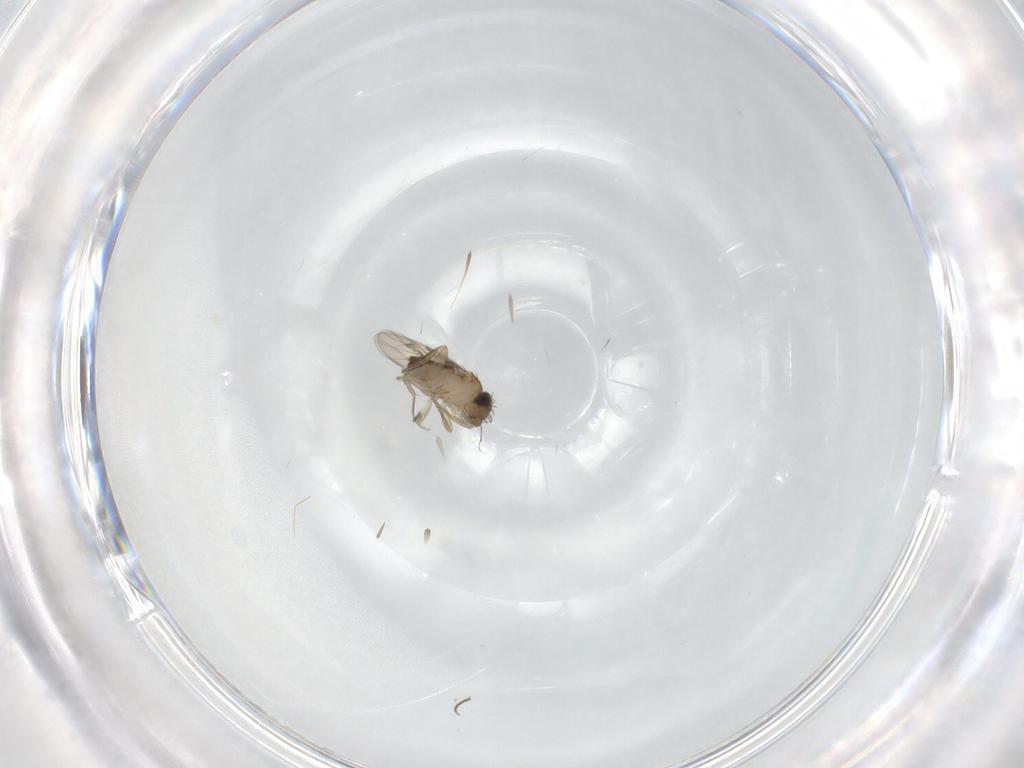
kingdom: Animalia
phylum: Arthropoda
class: Insecta
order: Diptera
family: Phoridae
